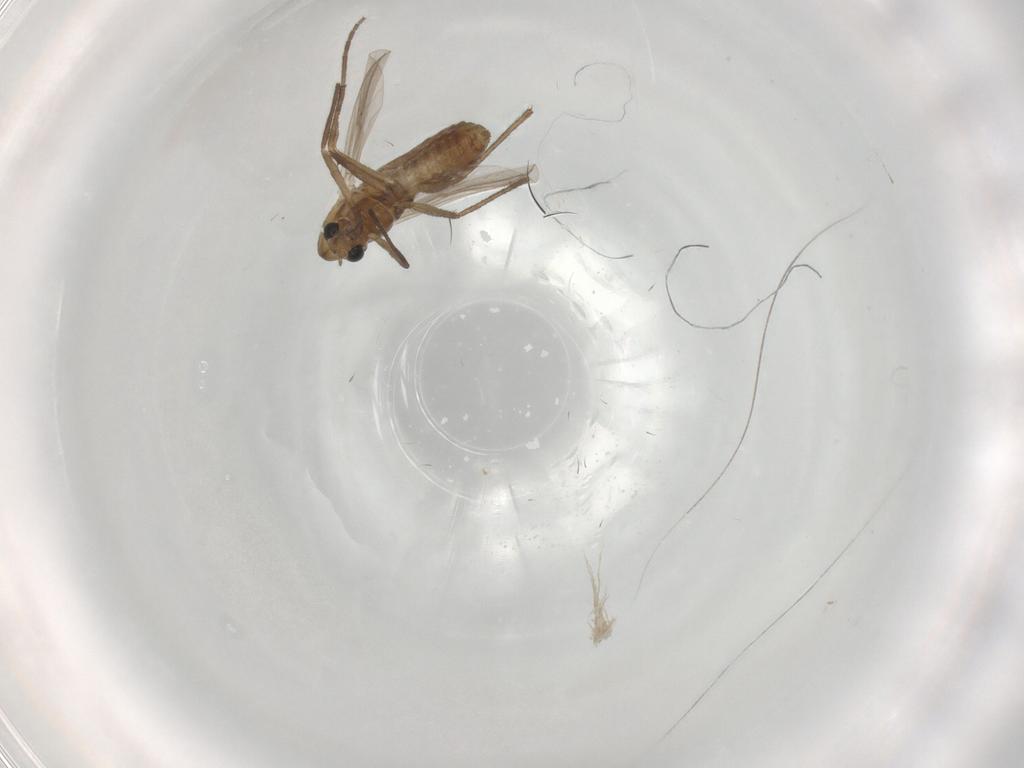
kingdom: Animalia
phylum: Arthropoda
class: Insecta
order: Diptera
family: Chironomidae
